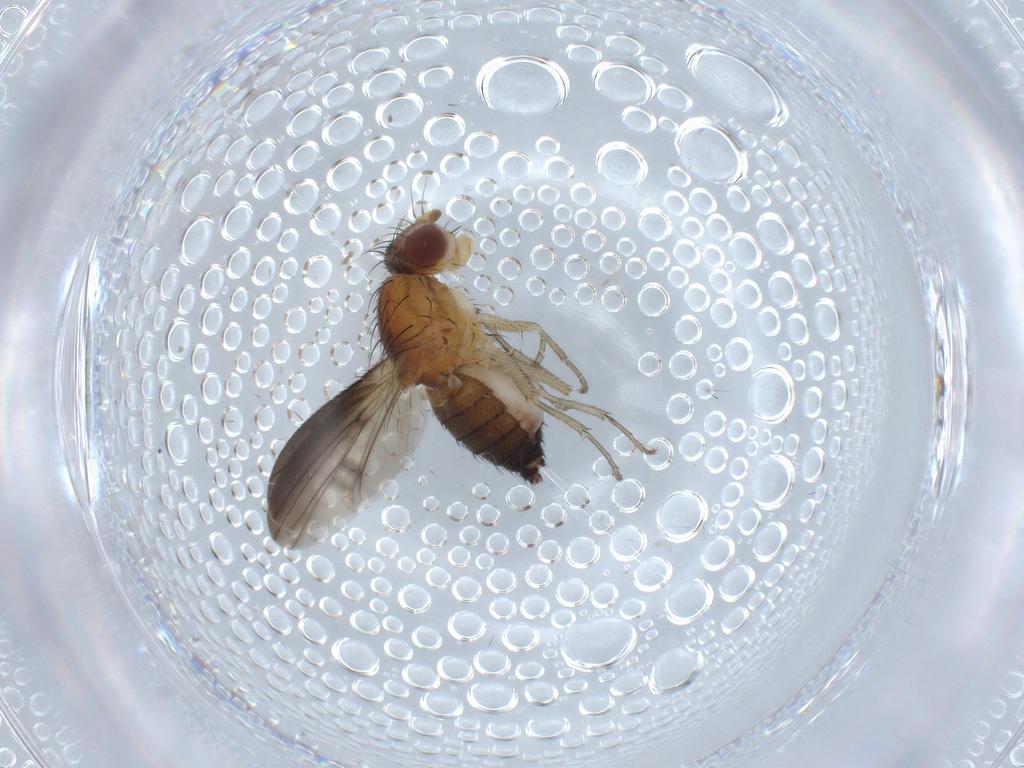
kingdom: Animalia
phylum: Arthropoda
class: Insecta
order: Diptera
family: Heleomyzidae
